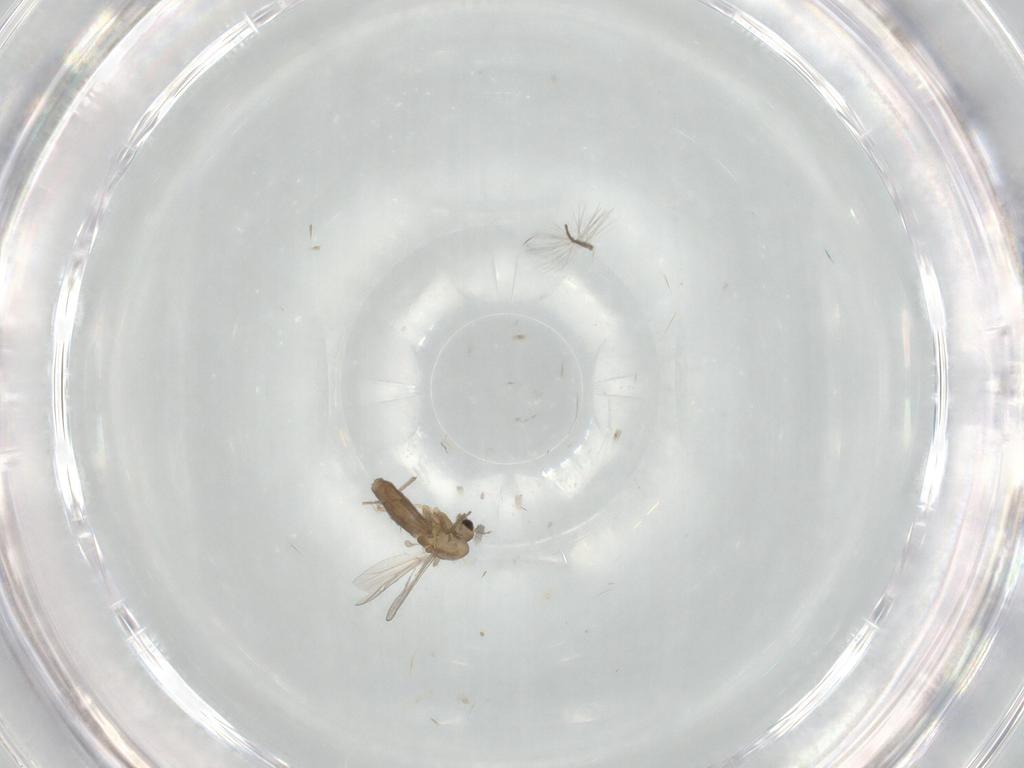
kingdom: Animalia
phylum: Arthropoda
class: Insecta
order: Diptera
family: Chironomidae
